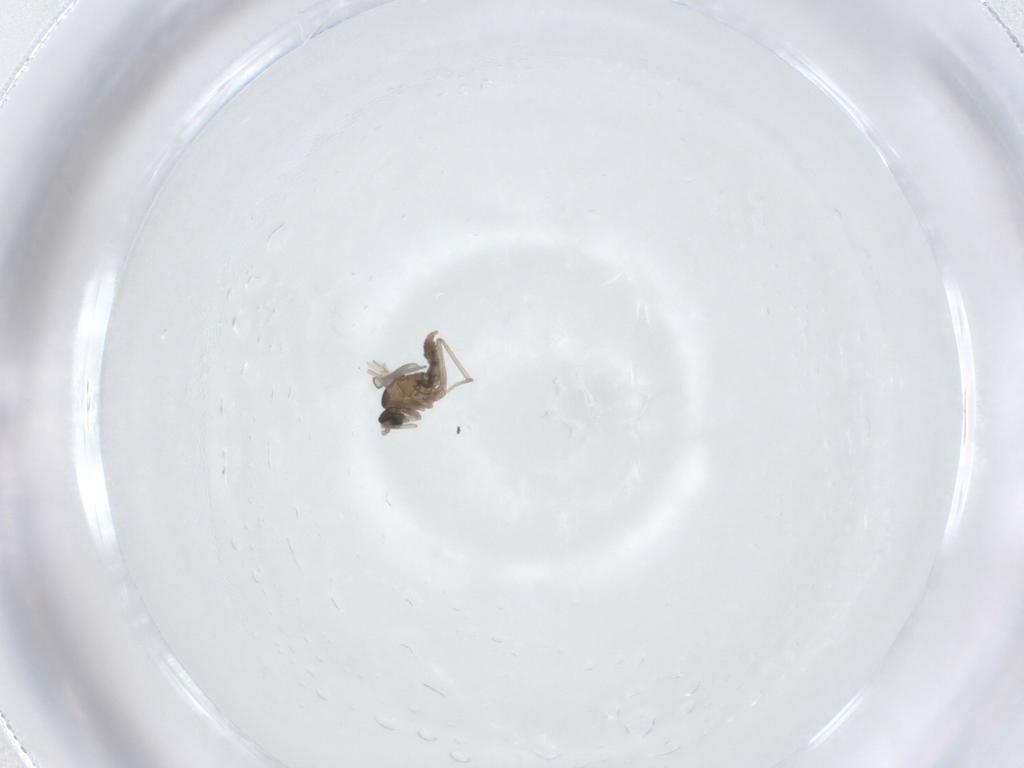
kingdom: Animalia
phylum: Arthropoda
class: Insecta
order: Diptera
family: Cecidomyiidae
